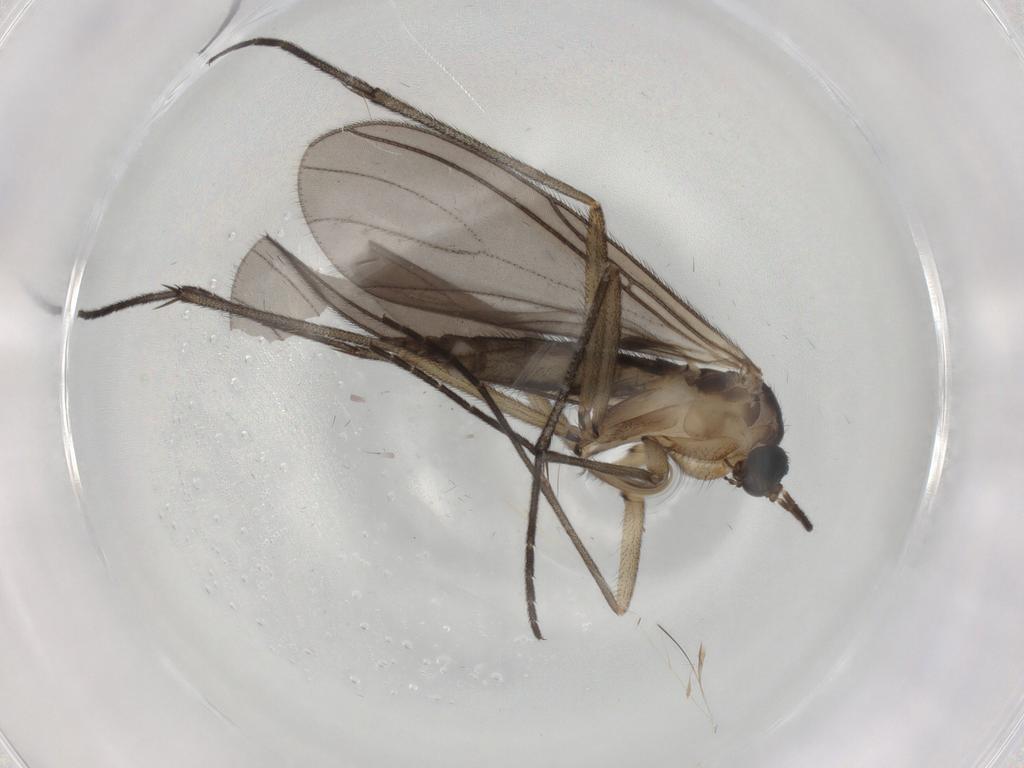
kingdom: Animalia
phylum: Arthropoda
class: Insecta
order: Diptera
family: Sciaridae
